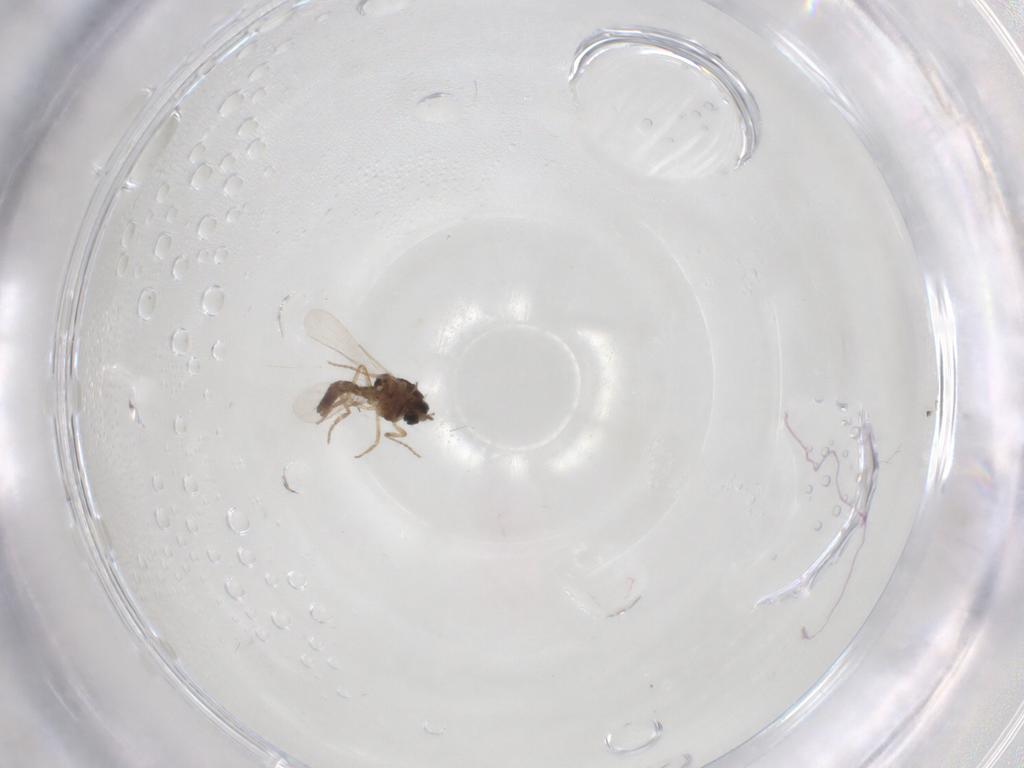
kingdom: Animalia
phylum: Arthropoda
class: Insecta
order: Diptera
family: Ceratopogonidae
